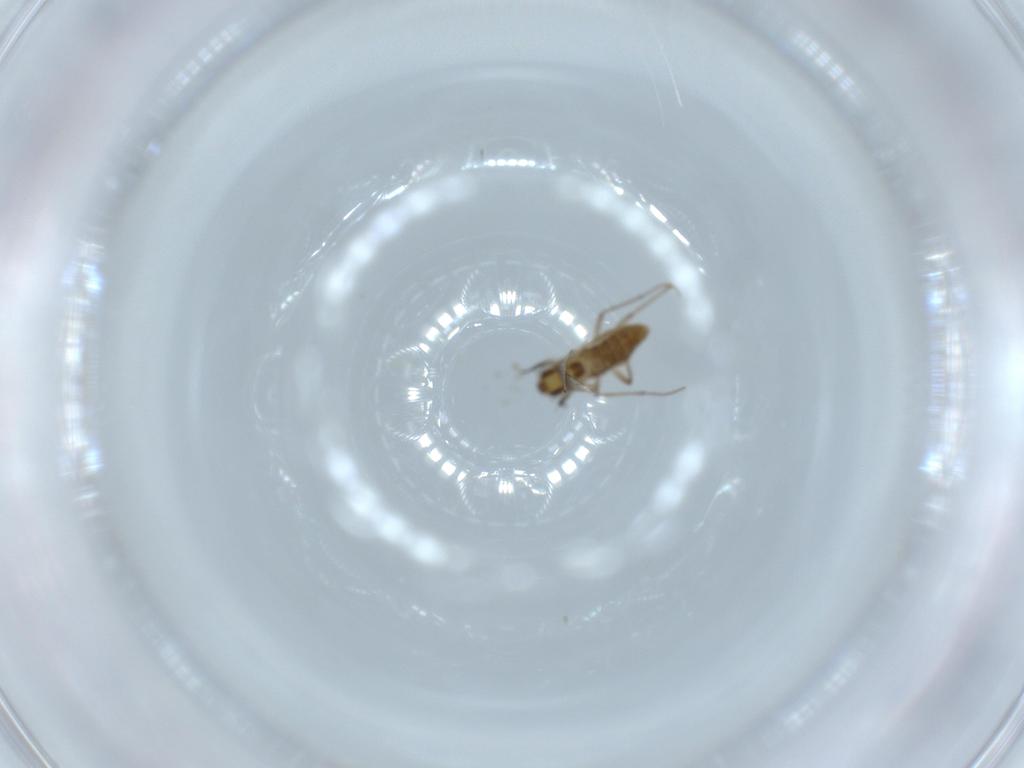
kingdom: Animalia
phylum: Arthropoda
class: Insecta
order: Diptera
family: Chironomidae
